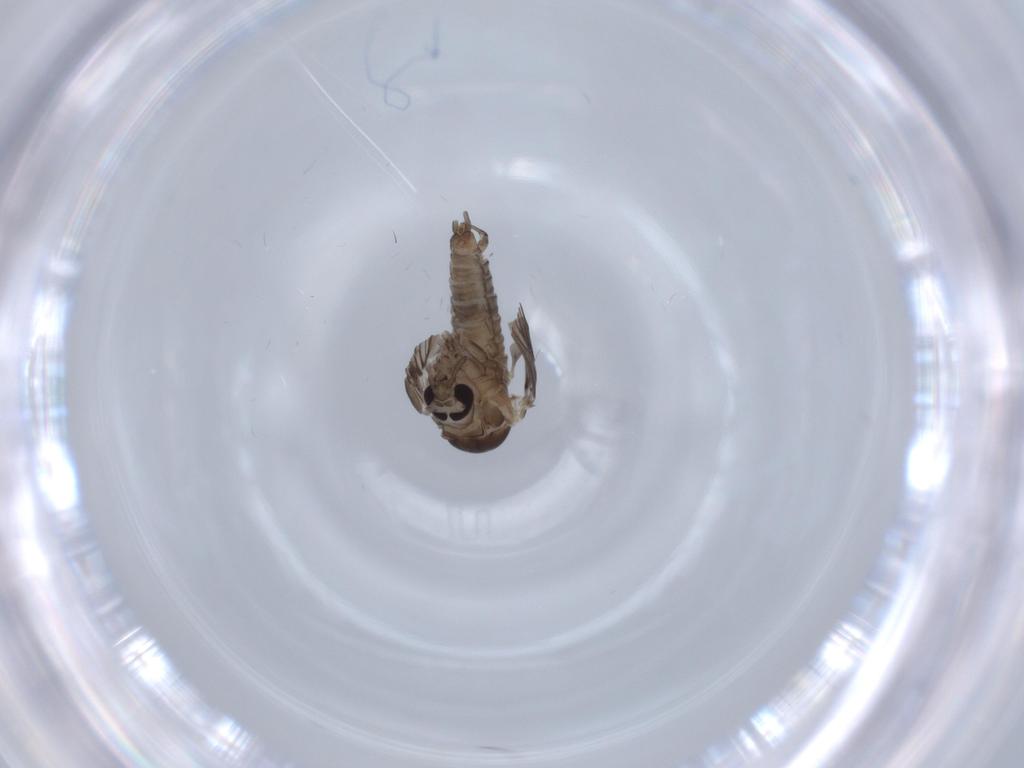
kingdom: Animalia
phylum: Arthropoda
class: Insecta
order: Diptera
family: Psychodidae
